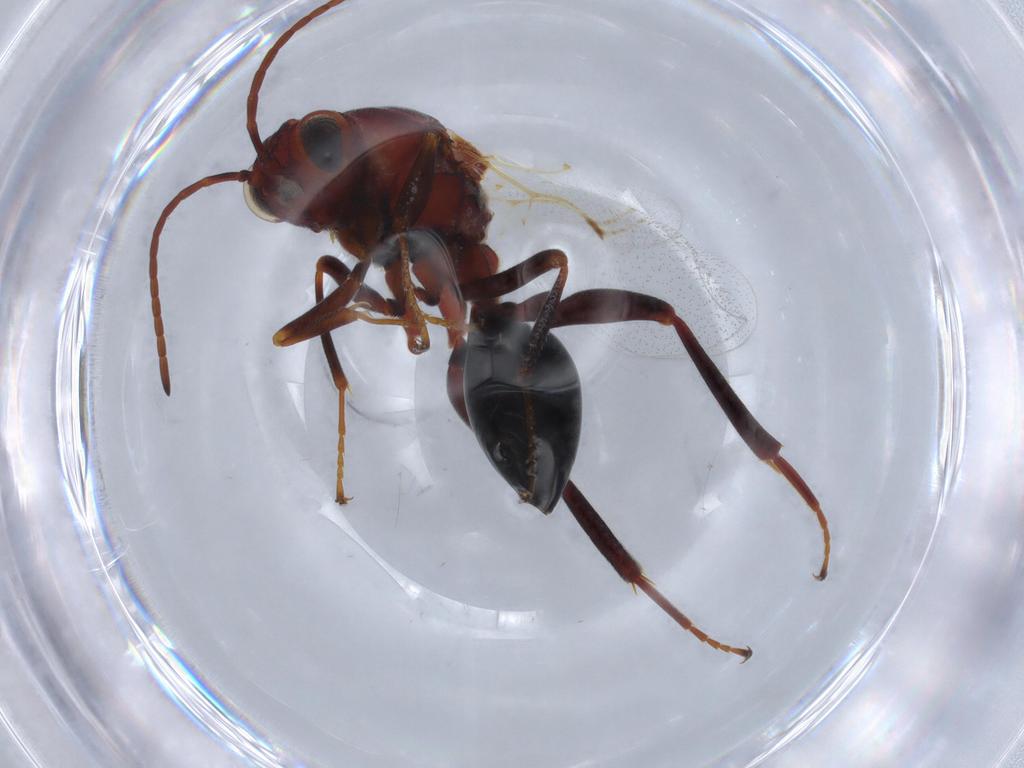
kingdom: Animalia
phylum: Arthropoda
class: Insecta
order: Hymenoptera
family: Figitidae
